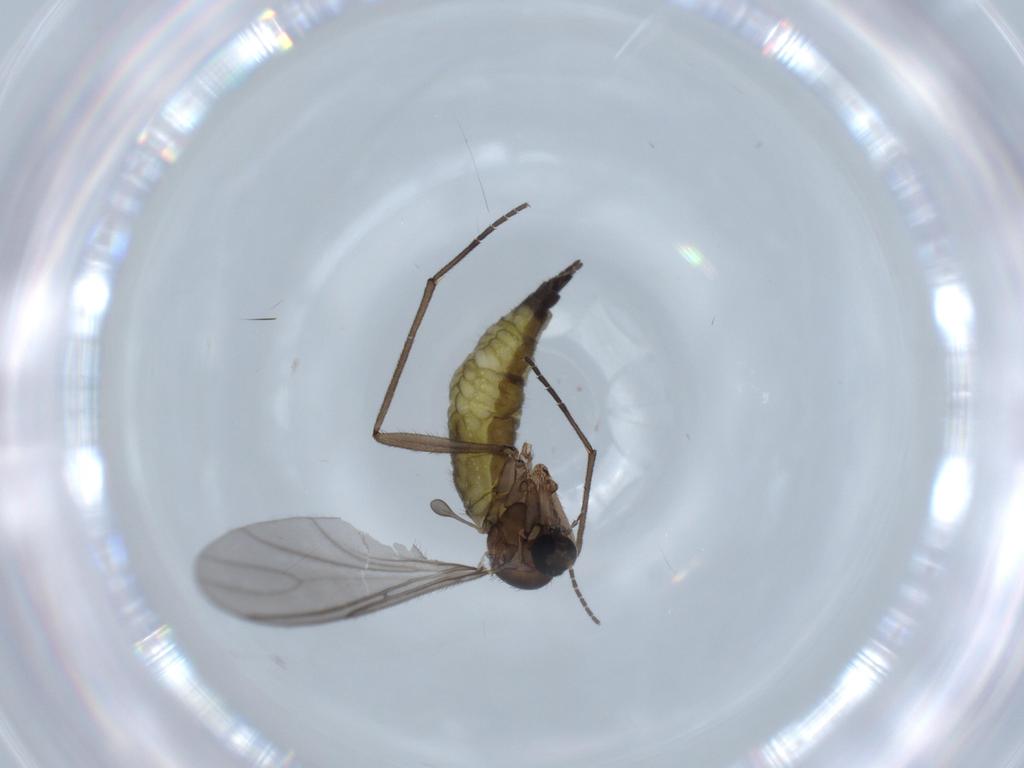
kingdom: Animalia
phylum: Arthropoda
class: Insecta
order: Diptera
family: Sciaridae
